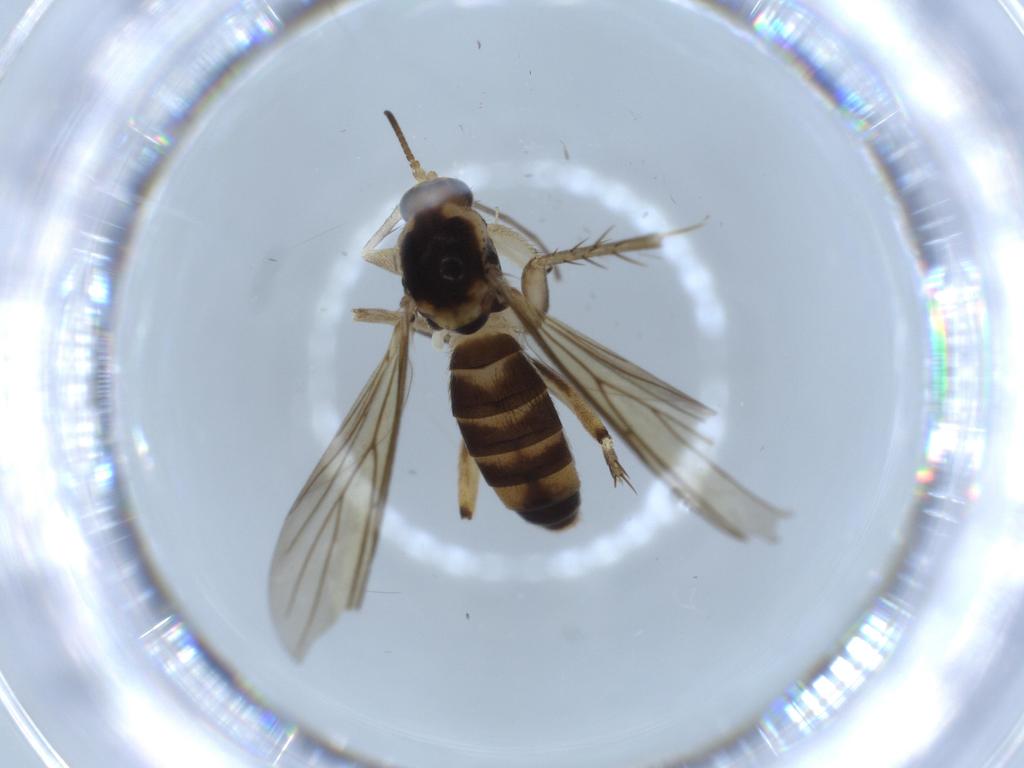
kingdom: Animalia
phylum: Arthropoda
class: Insecta
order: Diptera
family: Mycetophilidae
